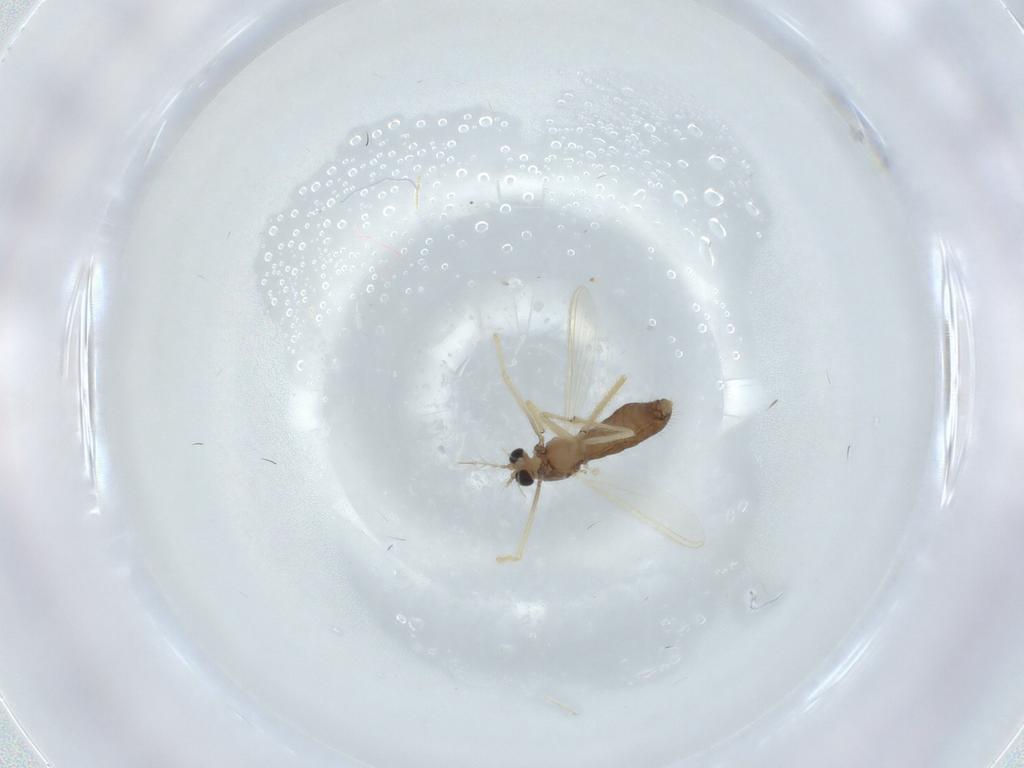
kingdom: Animalia
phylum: Arthropoda
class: Insecta
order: Diptera
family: Chironomidae
